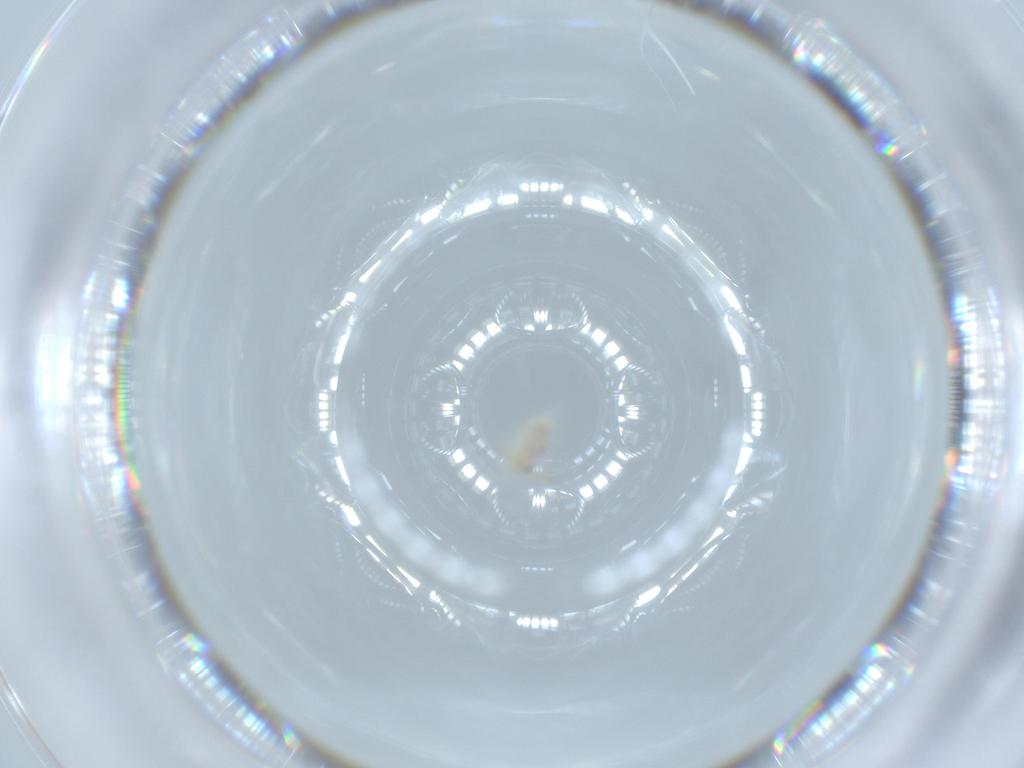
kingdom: Animalia
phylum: Arthropoda
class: Collembola
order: Symphypleona
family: Bourletiellidae
